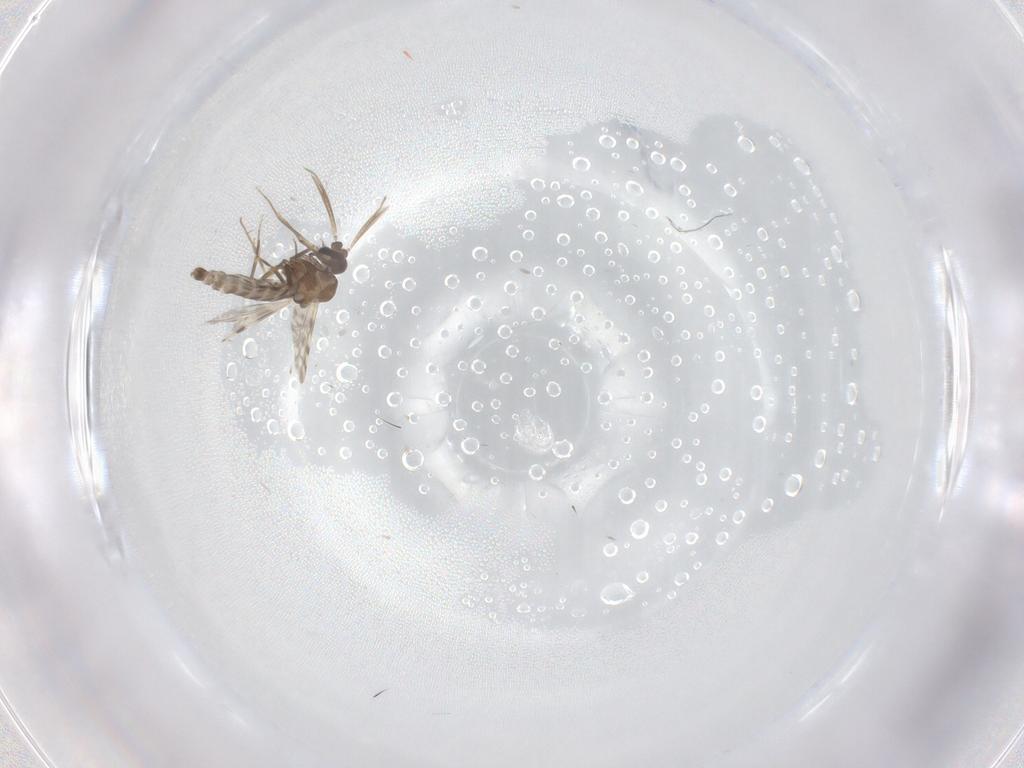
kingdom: Animalia
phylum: Arthropoda
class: Insecta
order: Diptera
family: Ceratopogonidae
